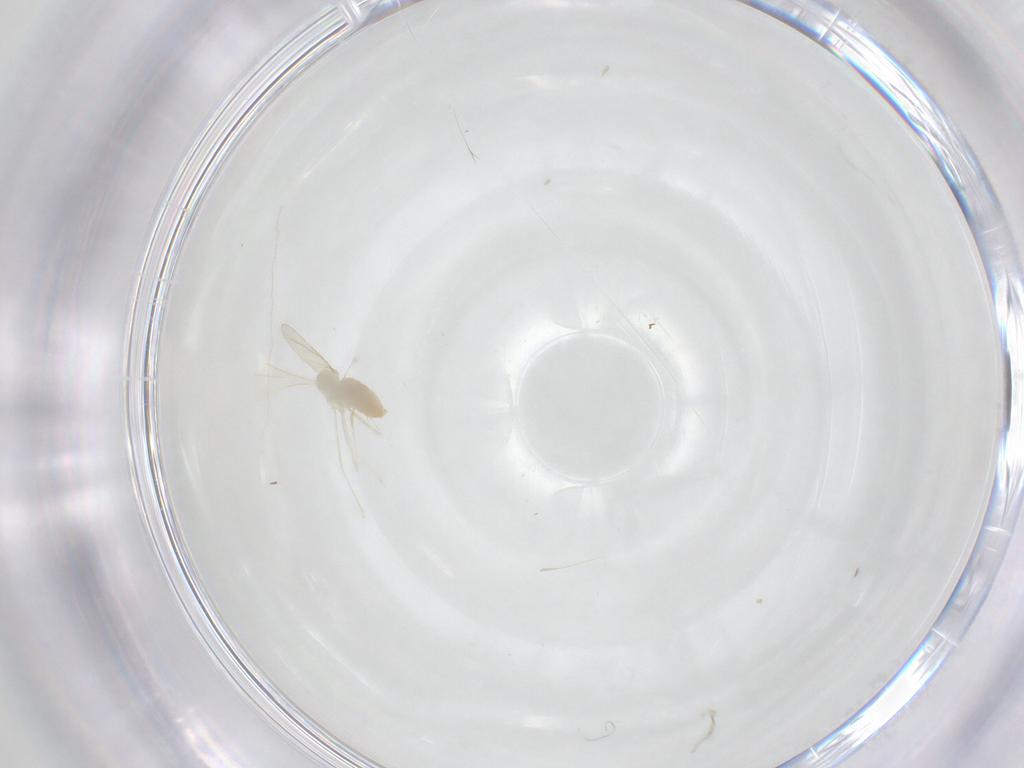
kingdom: Animalia
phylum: Arthropoda
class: Insecta
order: Diptera
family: Cecidomyiidae
